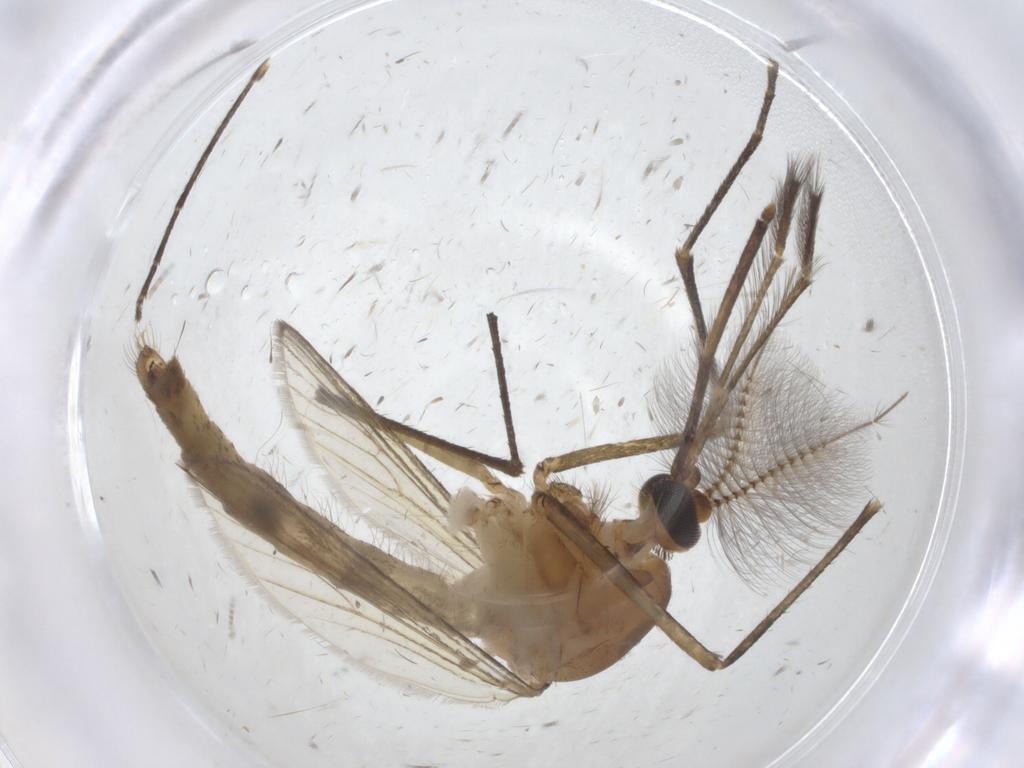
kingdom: Animalia
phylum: Arthropoda
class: Insecta
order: Diptera
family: Culicidae
